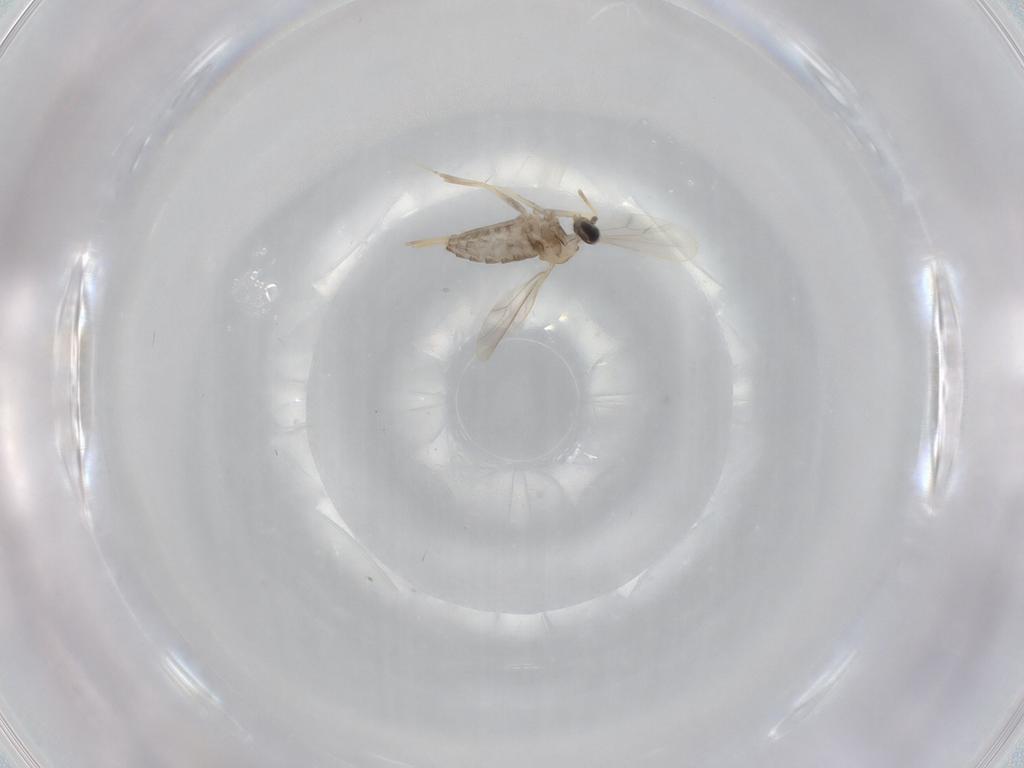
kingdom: Animalia
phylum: Arthropoda
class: Insecta
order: Diptera
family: Cecidomyiidae
